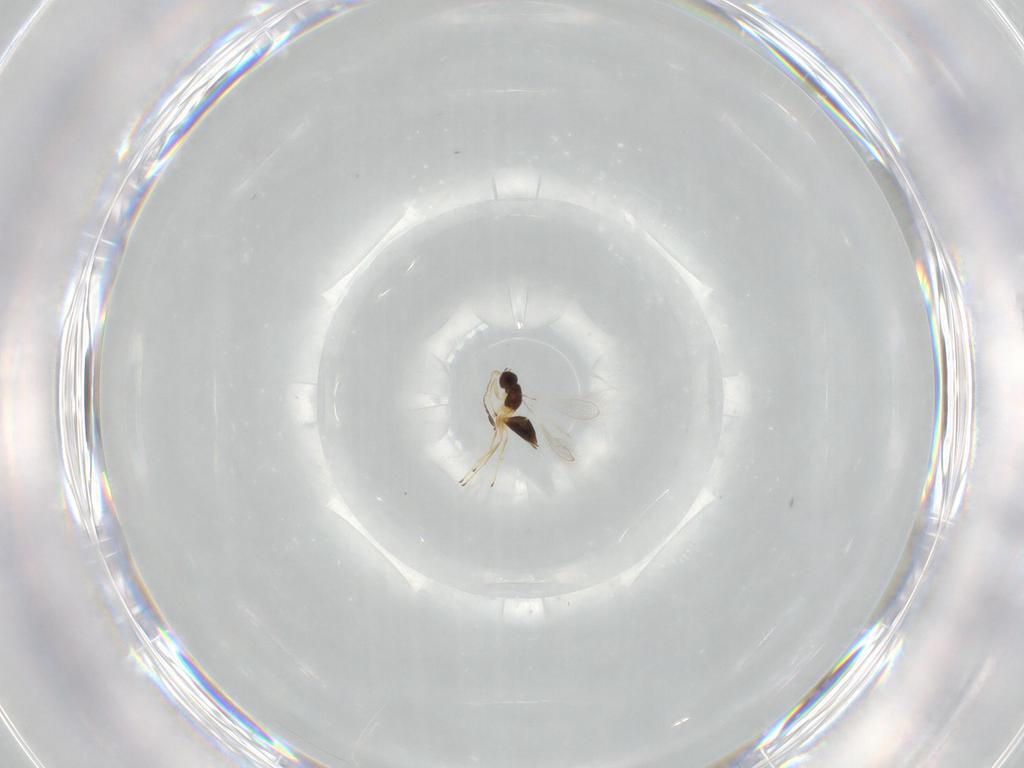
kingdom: Animalia
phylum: Arthropoda
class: Insecta
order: Hymenoptera
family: Mymaridae
